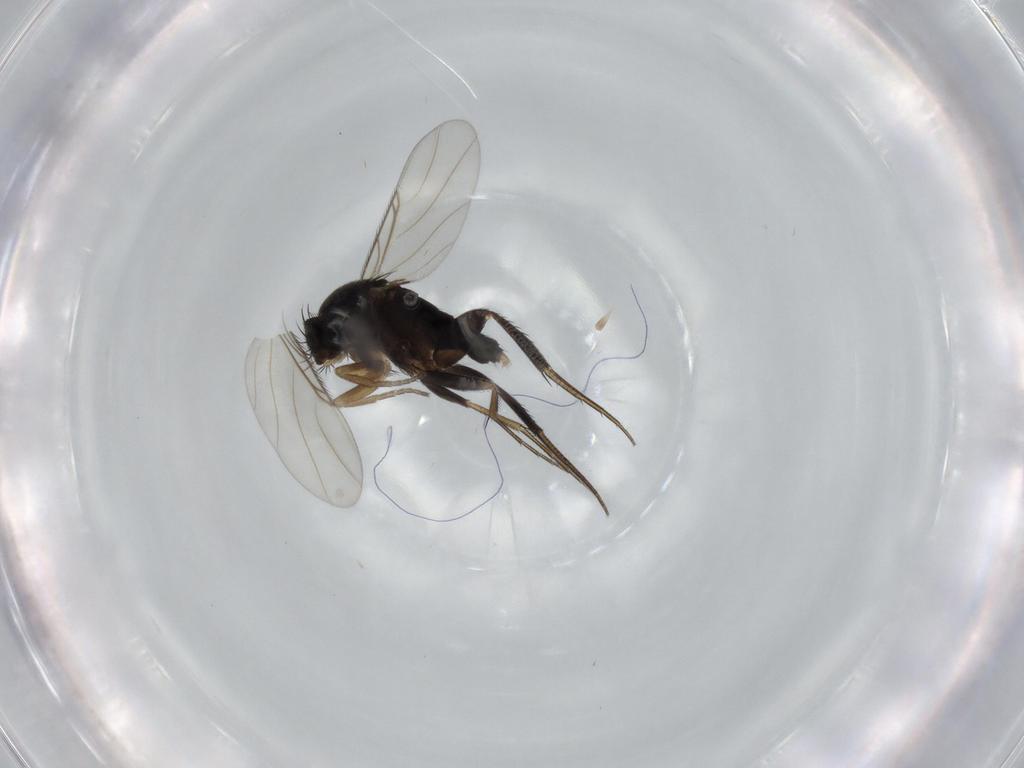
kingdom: Animalia
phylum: Arthropoda
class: Insecta
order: Diptera
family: Phoridae
